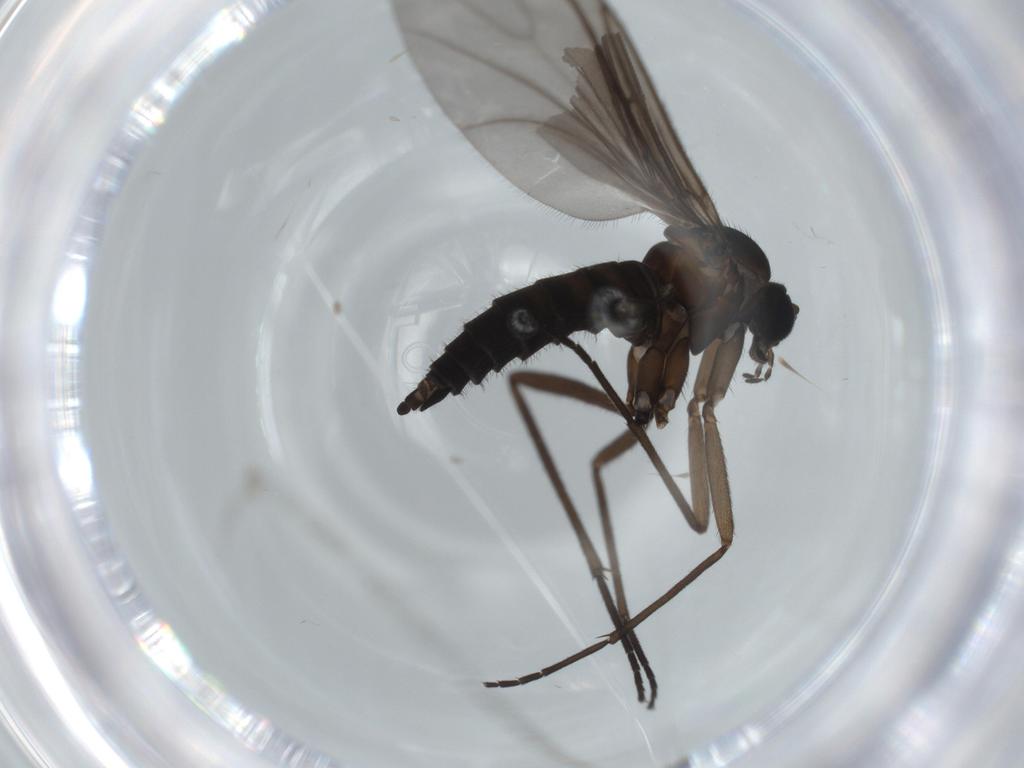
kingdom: Animalia
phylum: Arthropoda
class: Insecta
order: Diptera
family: Sciaridae
